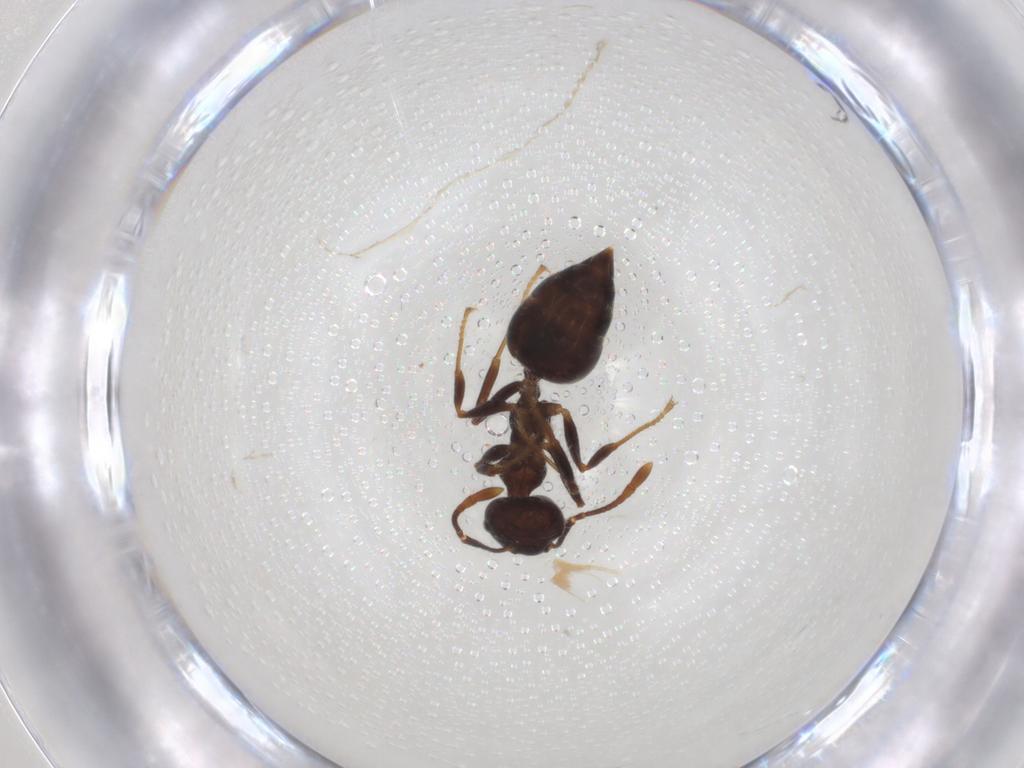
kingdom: Animalia
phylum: Arthropoda
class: Insecta
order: Hymenoptera
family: Formicidae
